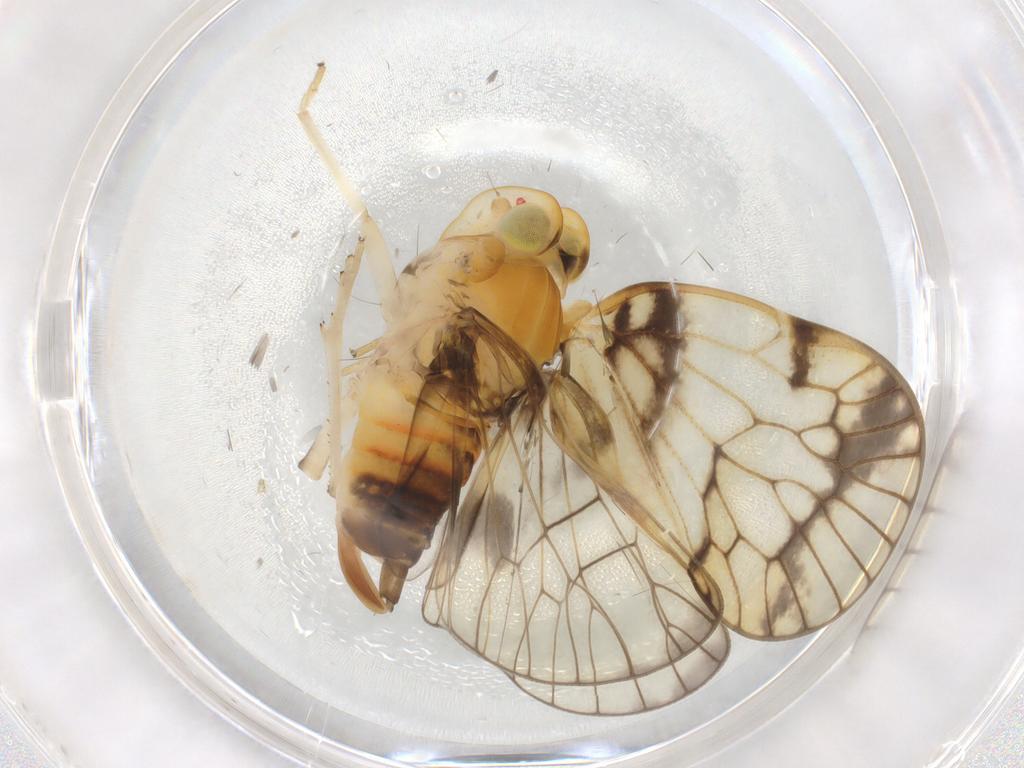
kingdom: Animalia
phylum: Arthropoda
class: Insecta
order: Hemiptera
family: Cixiidae
